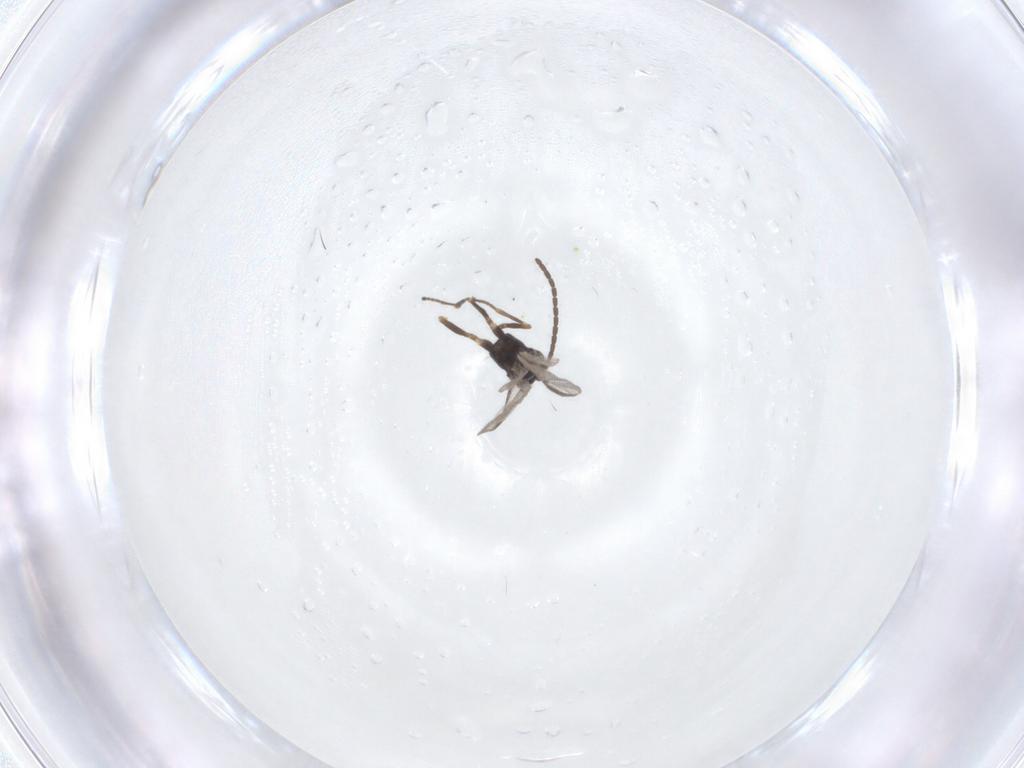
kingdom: Animalia
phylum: Arthropoda
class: Insecta
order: Hymenoptera
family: Braconidae
